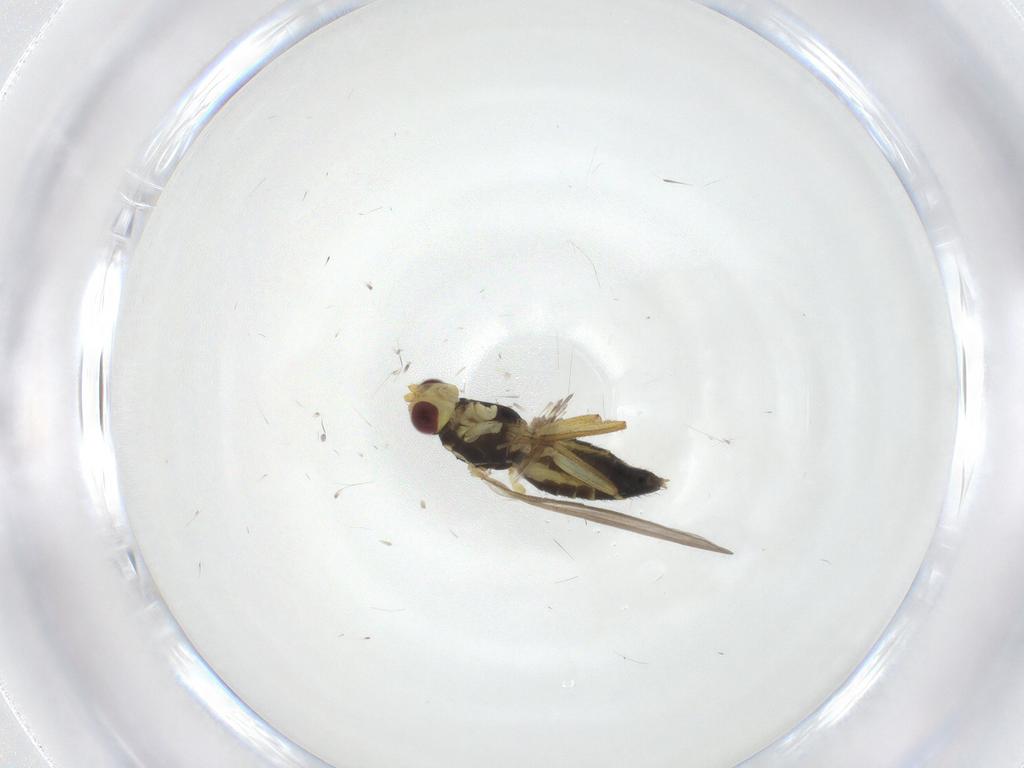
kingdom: Animalia
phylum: Arthropoda
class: Insecta
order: Diptera
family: Agromyzidae
